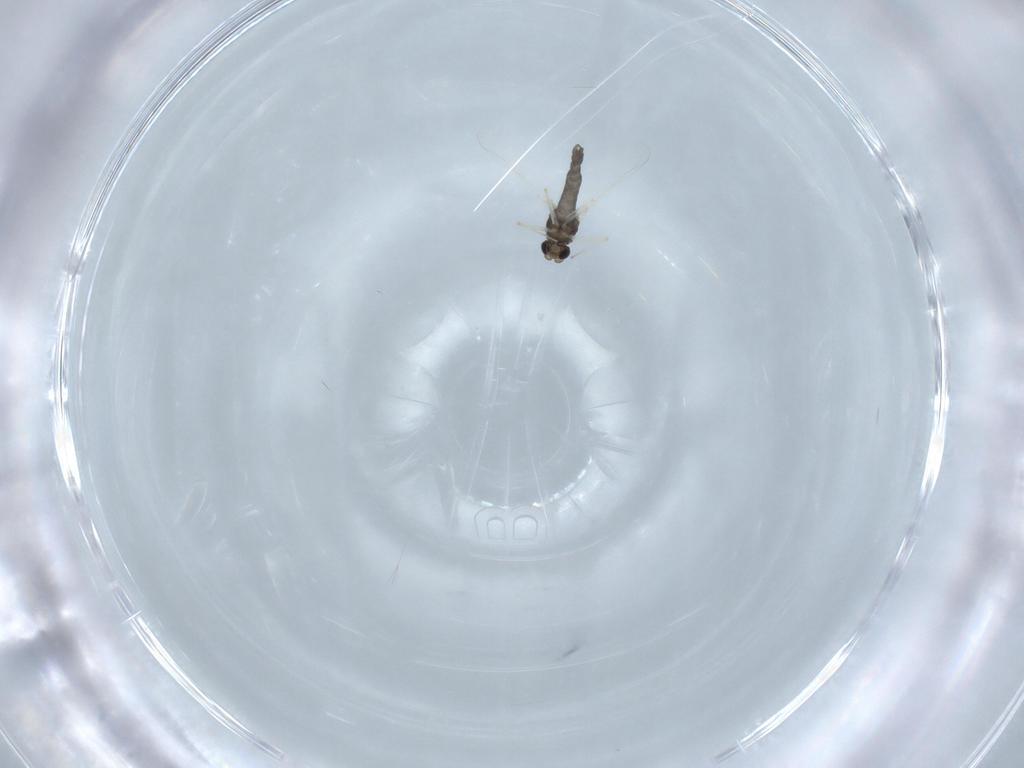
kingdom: Animalia
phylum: Arthropoda
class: Insecta
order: Diptera
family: Chironomidae
